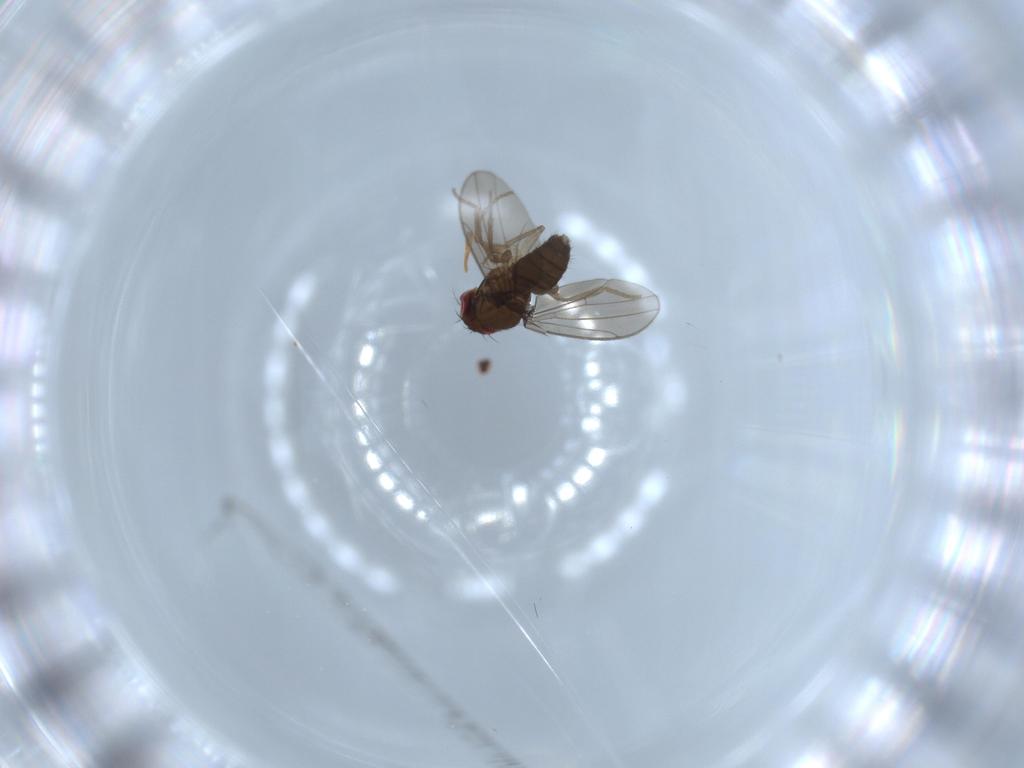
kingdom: Animalia
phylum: Arthropoda
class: Insecta
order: Diptera
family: Drosophilidae
